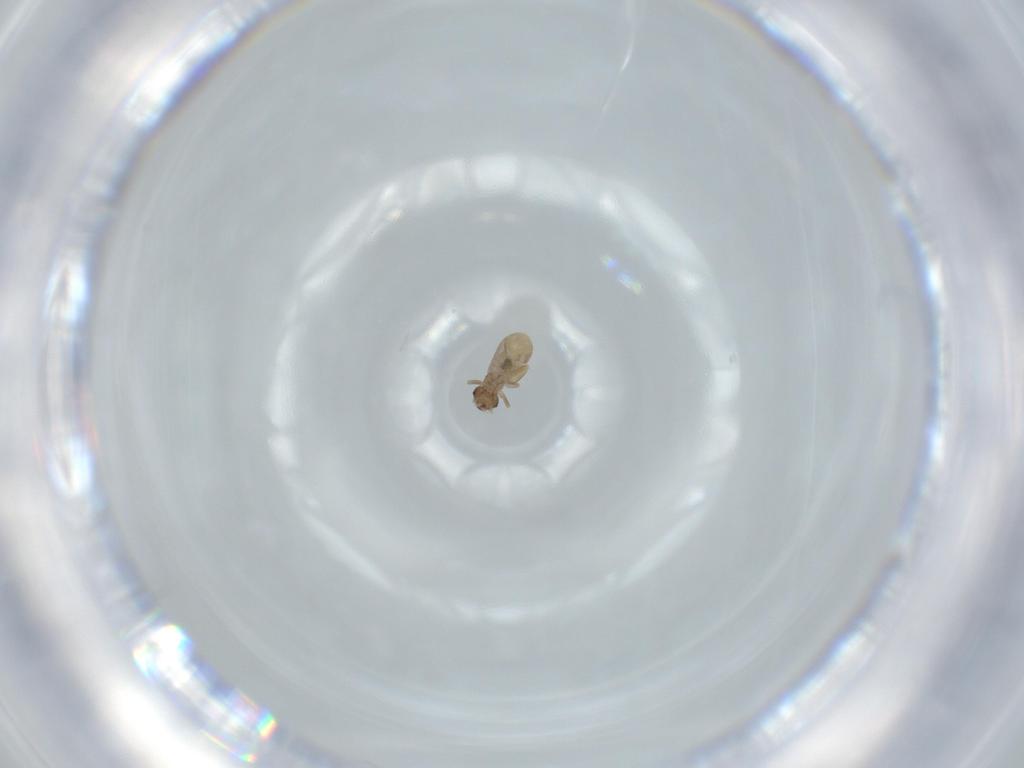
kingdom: Animalia
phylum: Arthropoda
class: Insecta
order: Psocodea
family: Liposcelididae
